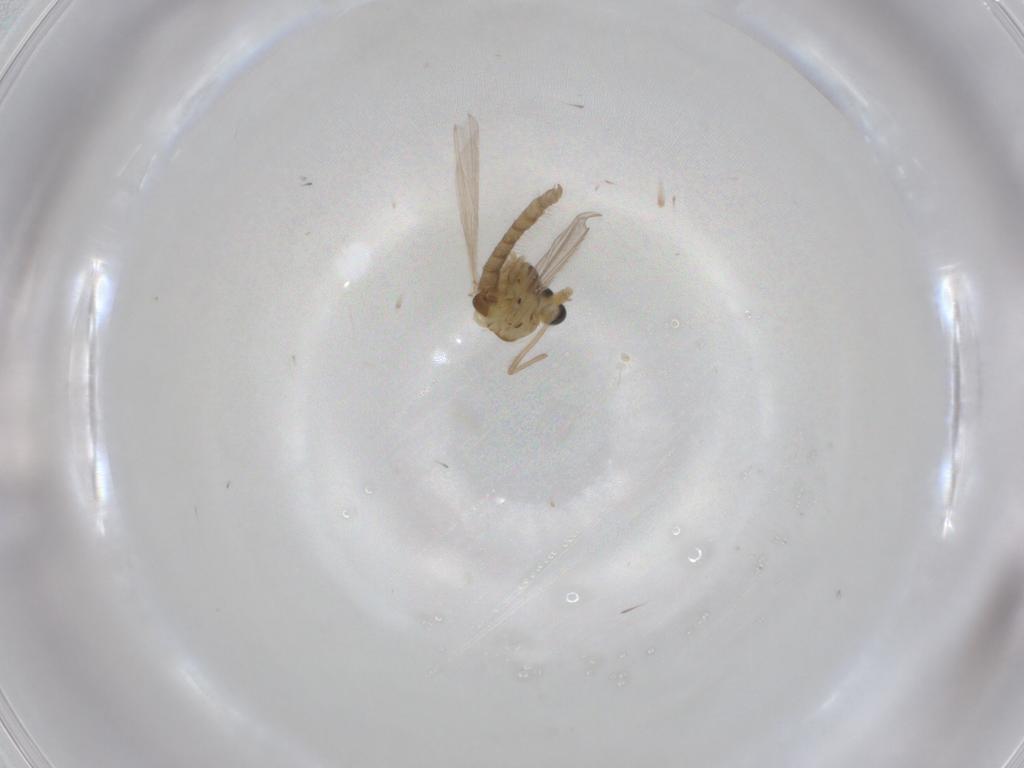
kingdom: Animalia
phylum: Arthropoda
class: Insecta
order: Diptera
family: Chironomidae
